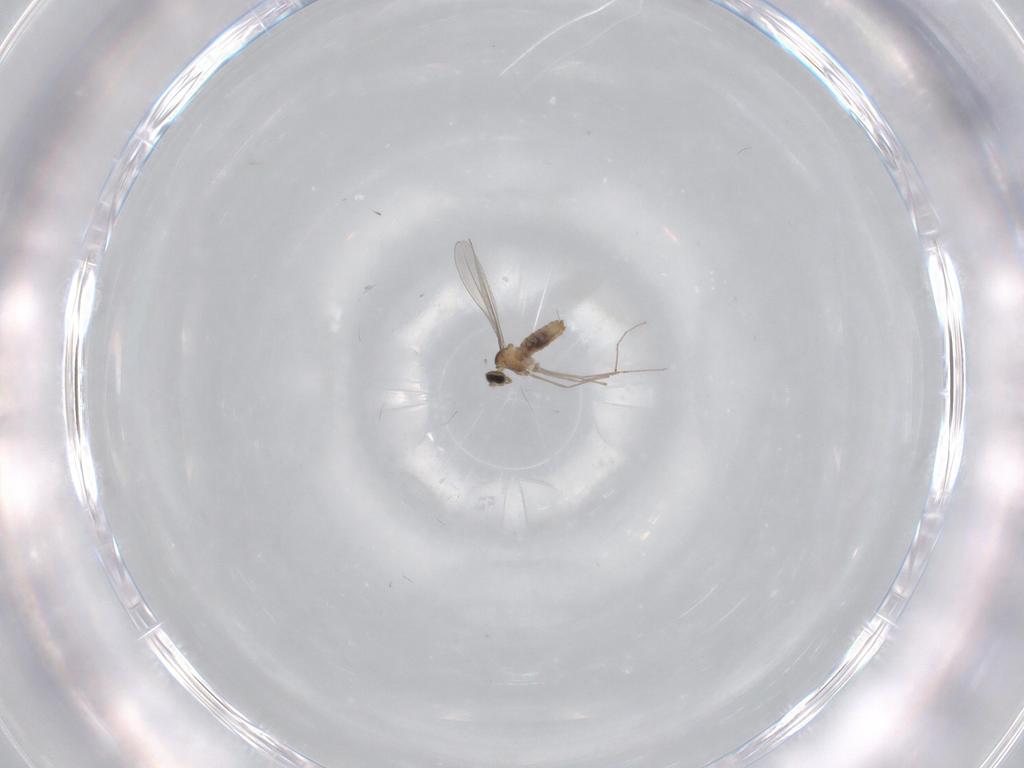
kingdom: Animalia
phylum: Arthropoda
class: Insecta
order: Diptera
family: Cecidomyiidae
